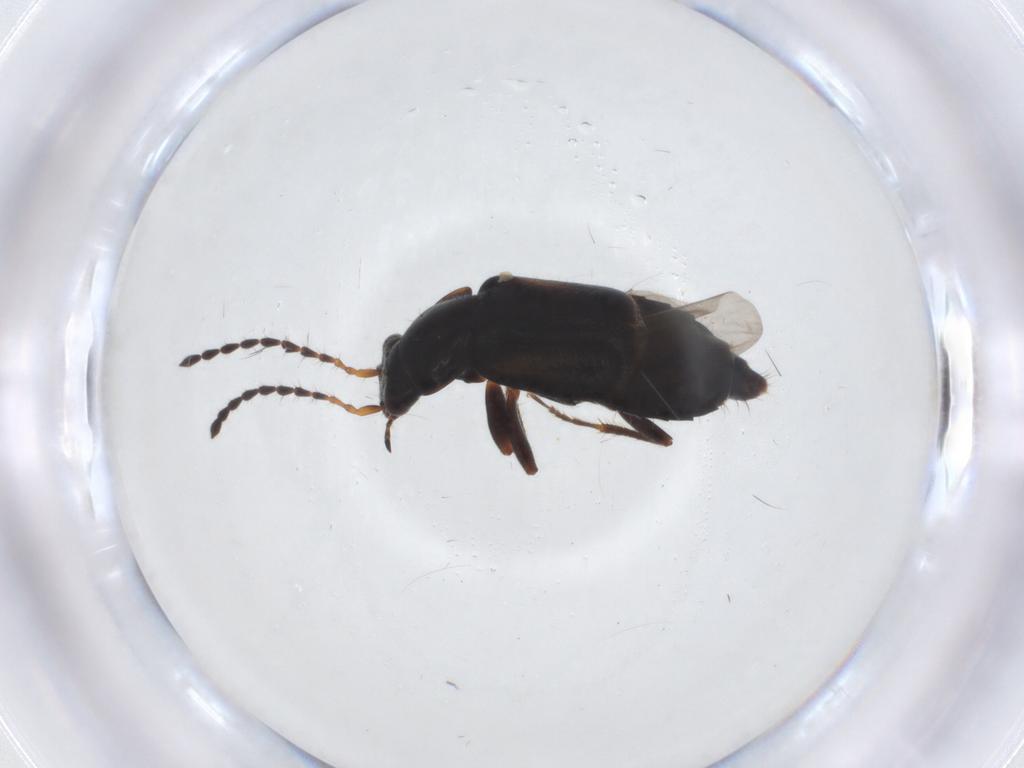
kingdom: Animalia
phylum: Arthropoda
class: Insecta
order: Coleoptera
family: Staphylinidae
